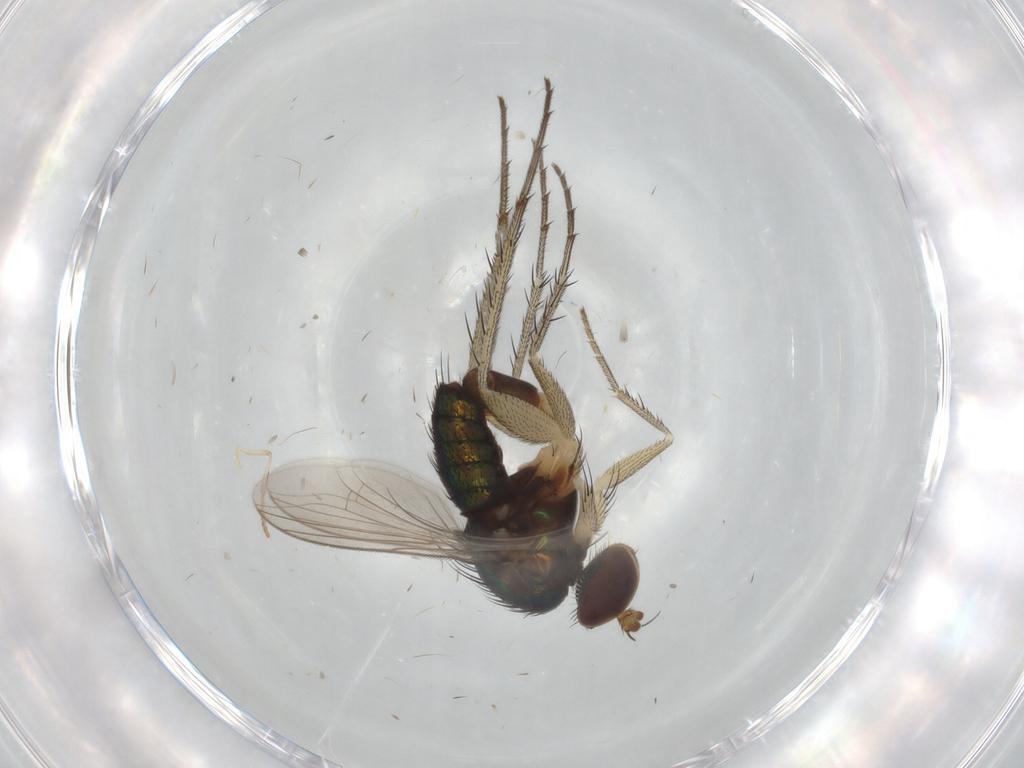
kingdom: Animalia
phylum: Arthropoda
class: Insecta
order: Diptera
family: Dolichopodidae
